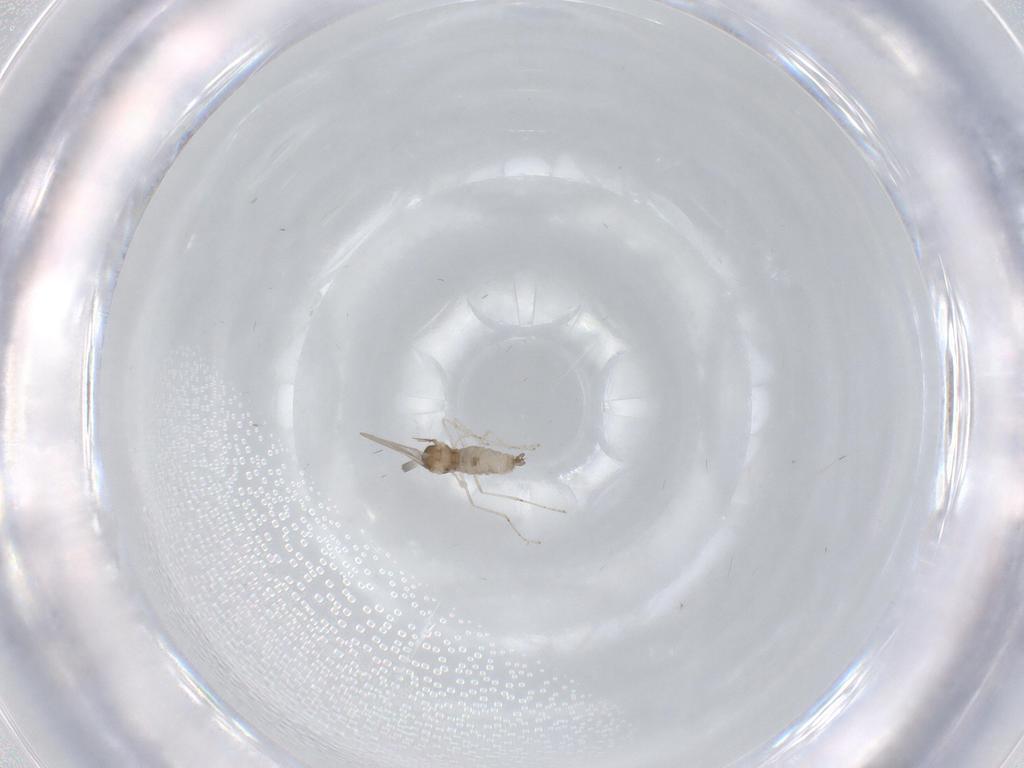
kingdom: Animalia
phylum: Arthropoda
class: Insecta
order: Diptera
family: Cecidomyiidae
